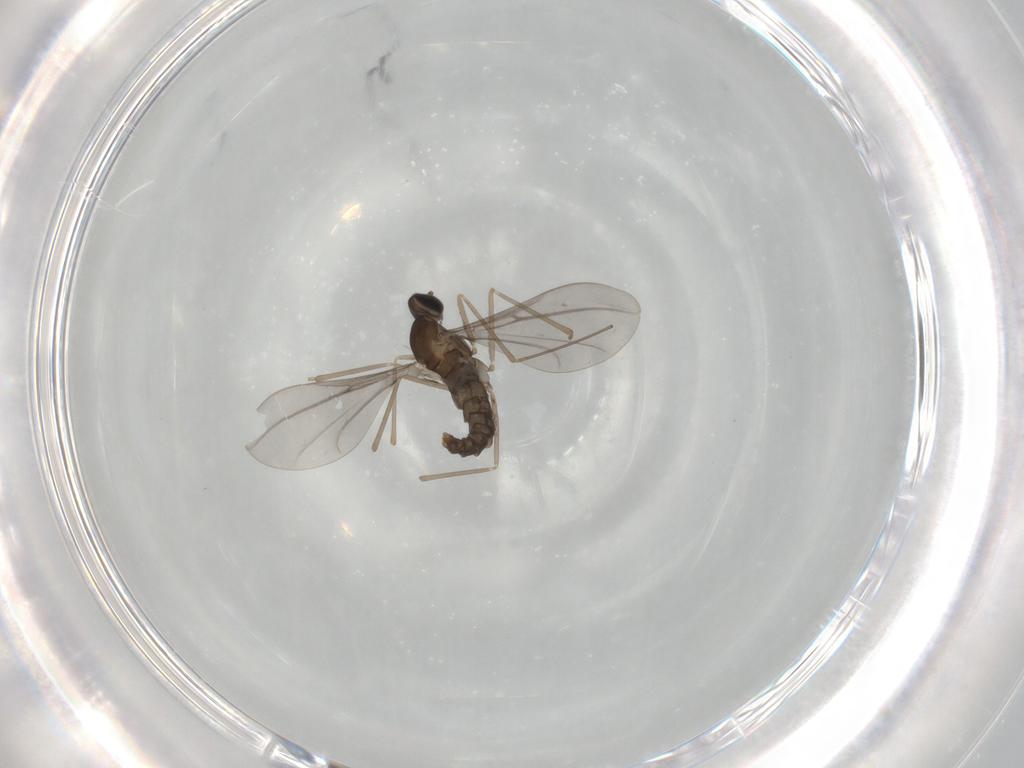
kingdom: Animalia
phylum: Arthropoda
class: Insecta
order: Diptera
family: Cecidomyiidae
